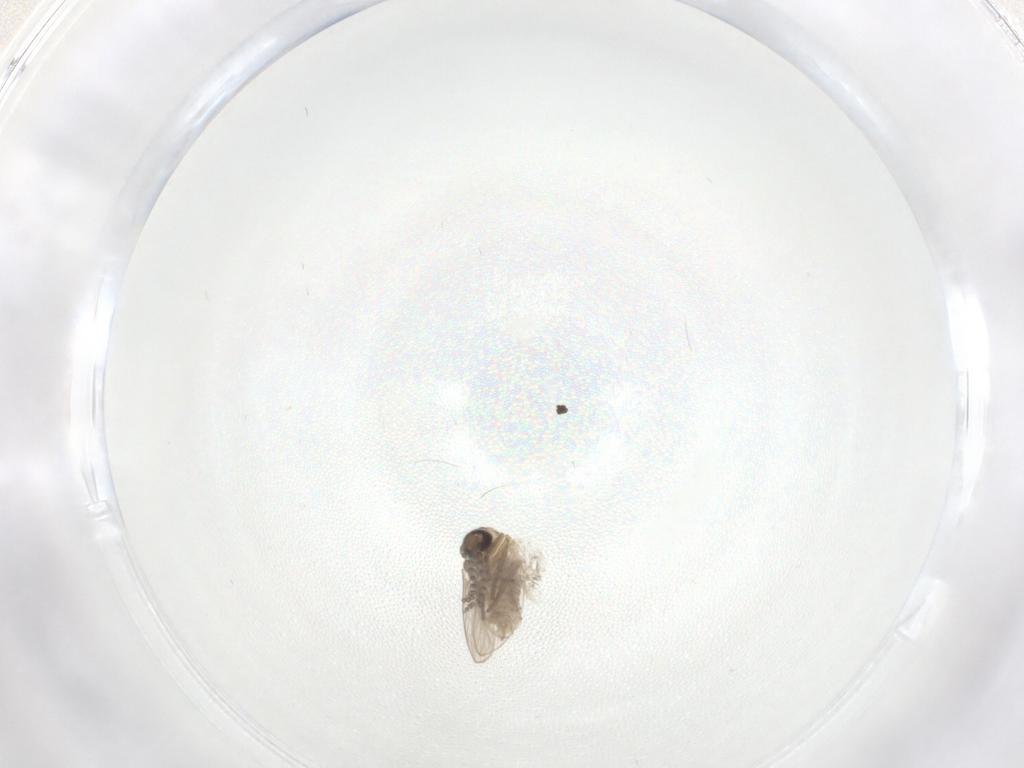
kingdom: Animalia
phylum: Arthropoda
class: Insecta
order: Diptera
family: Psychodidae
